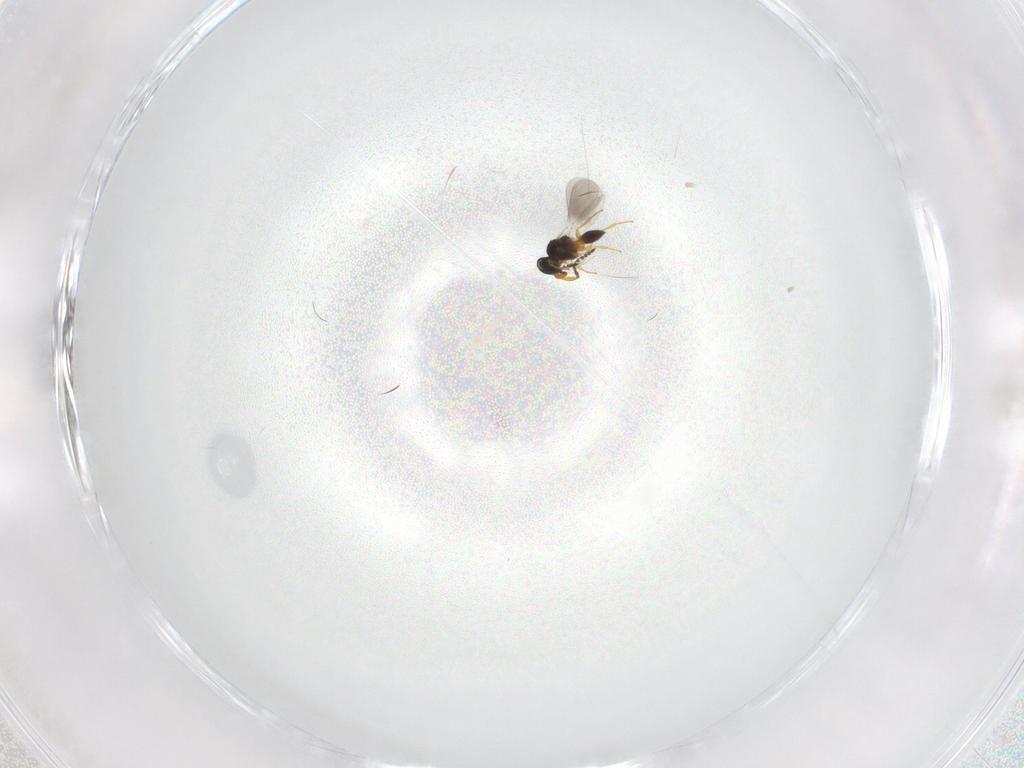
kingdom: Animalia
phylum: Arthropoda
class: Insecta
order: Hymenoptera
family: Platygastridae
